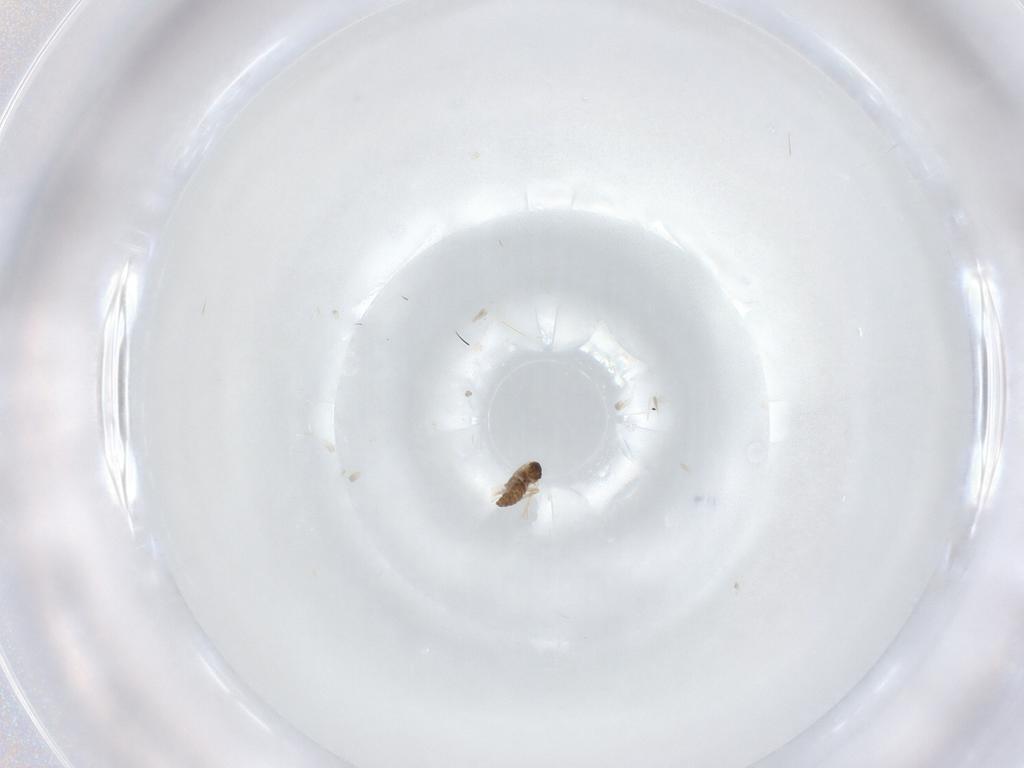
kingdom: Animalia
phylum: Arthropoda
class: Insecta
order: Diptera
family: Cecidomyiidae
